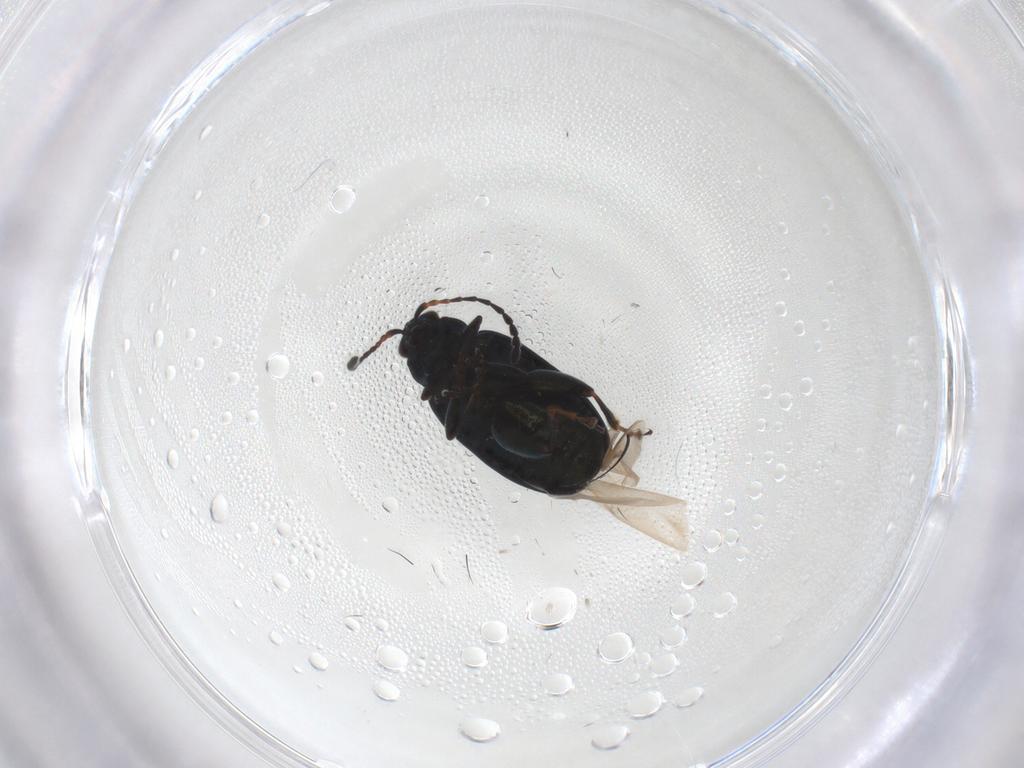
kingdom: Animalia
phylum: Arthropoda
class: Insecta
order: Coleoptera
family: Chrysomelidae
